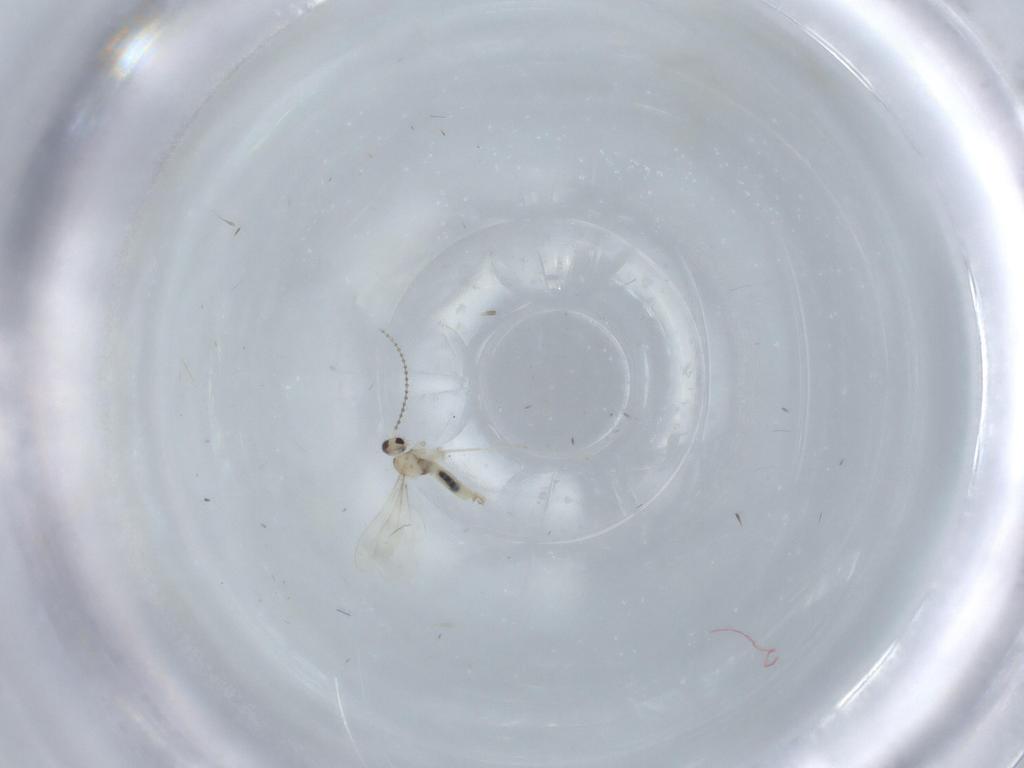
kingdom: Animalia
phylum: Arthropoda
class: Insecta
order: Diptera
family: Cecidomyiidae
